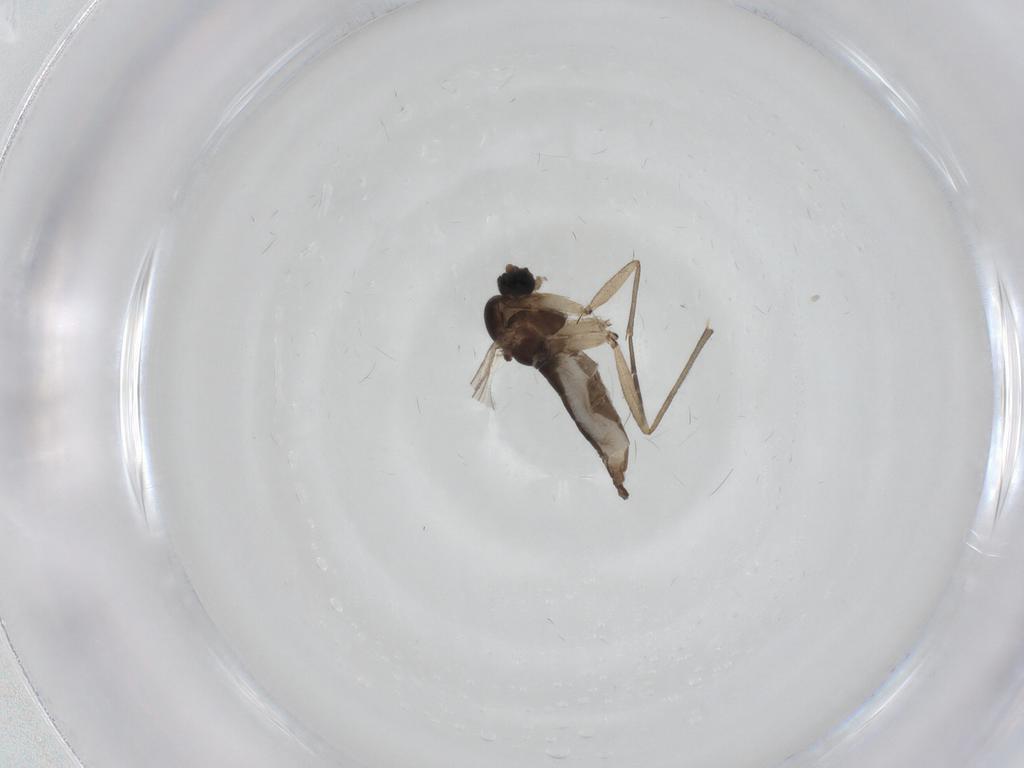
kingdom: Animalia
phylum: Arthropoda
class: Insecta
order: Diptera
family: Sciaridae
